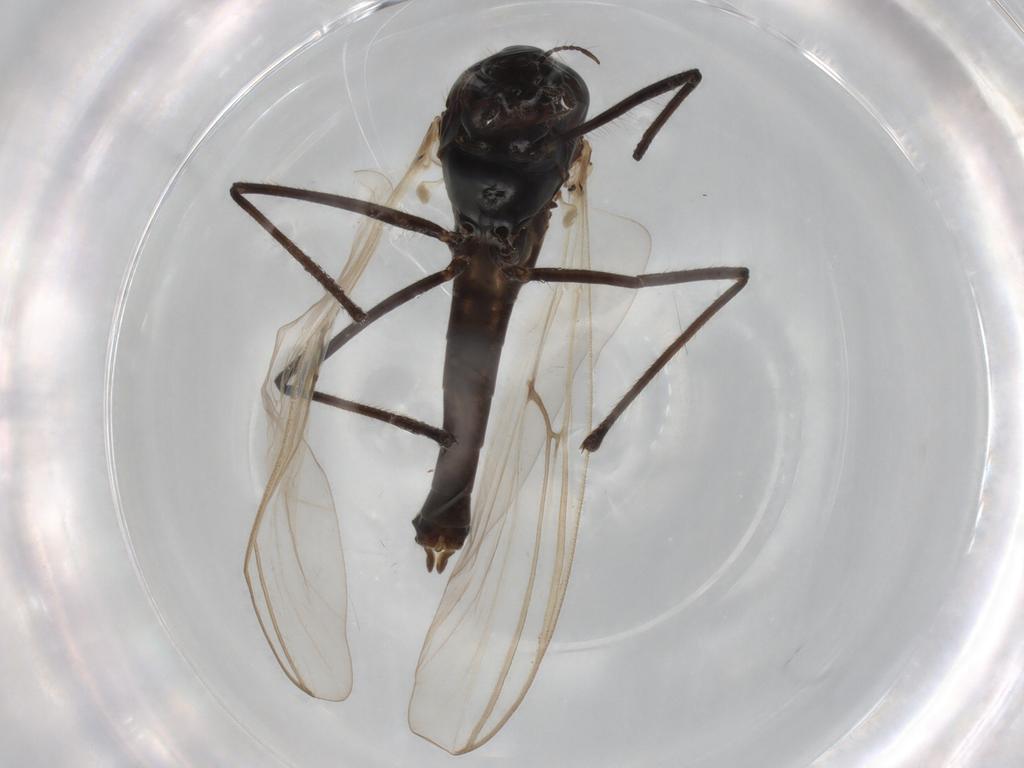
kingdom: Animalia
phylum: Arthropoda
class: Insecta
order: Diptera
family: Chironomidae
